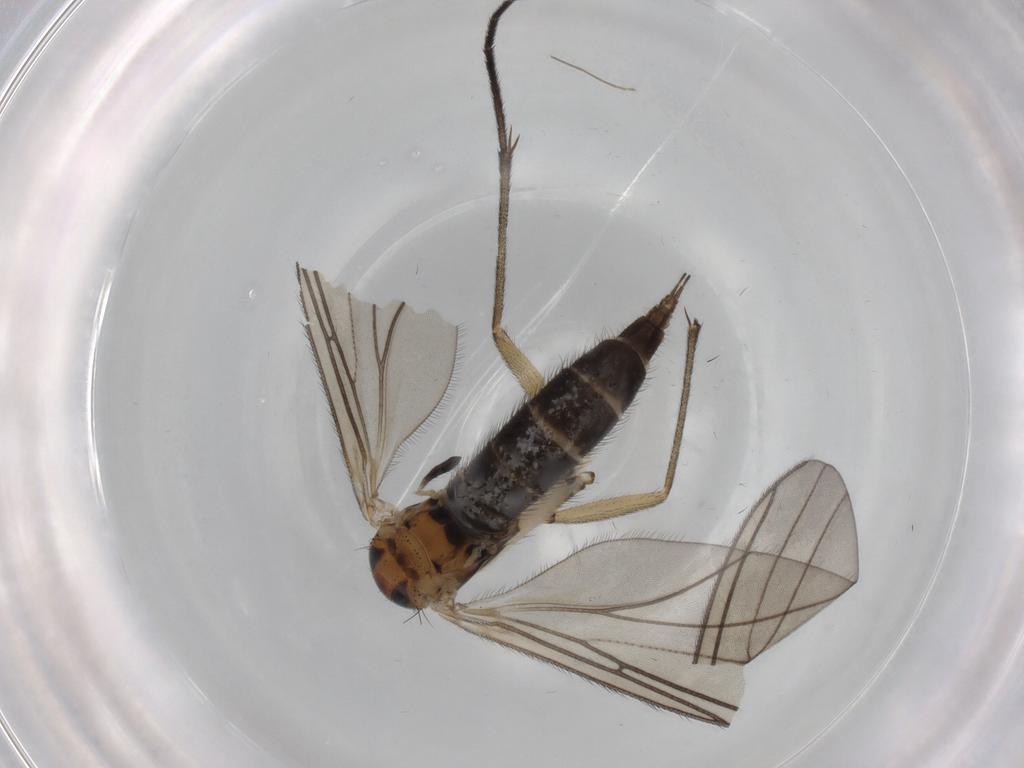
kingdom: Animalia
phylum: Arthropoda
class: Insecta
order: Diptera
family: Sciaridae
